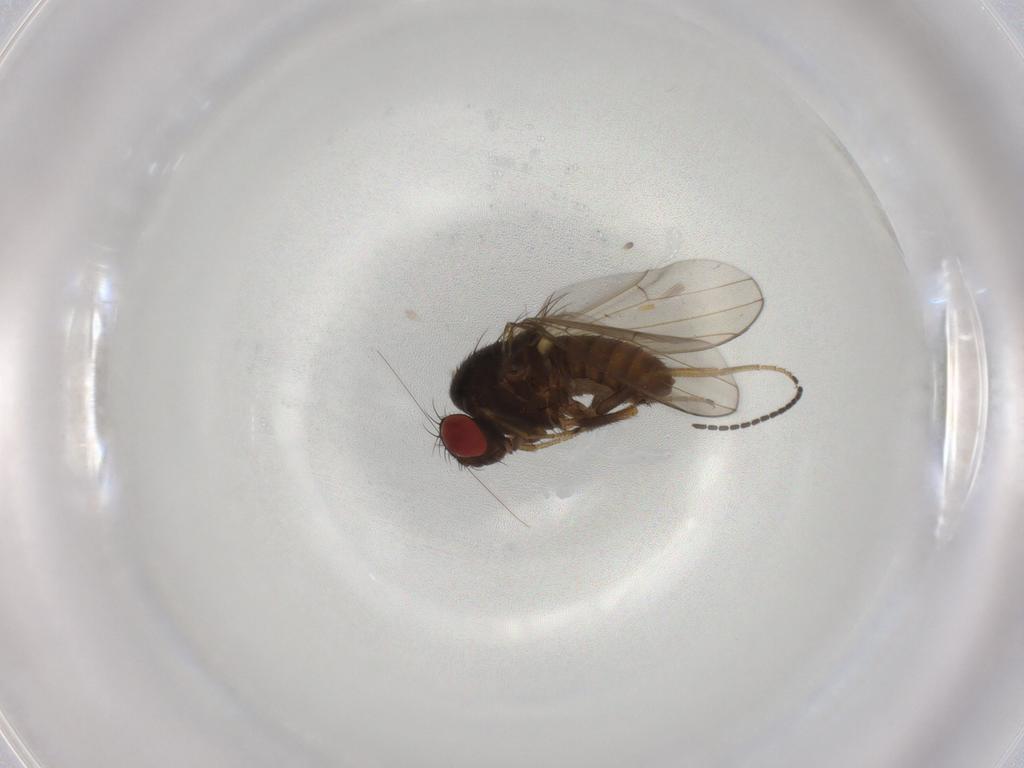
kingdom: Animalia
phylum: Arthropoda
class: Insecta
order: Diptera
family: Drosophilidae
